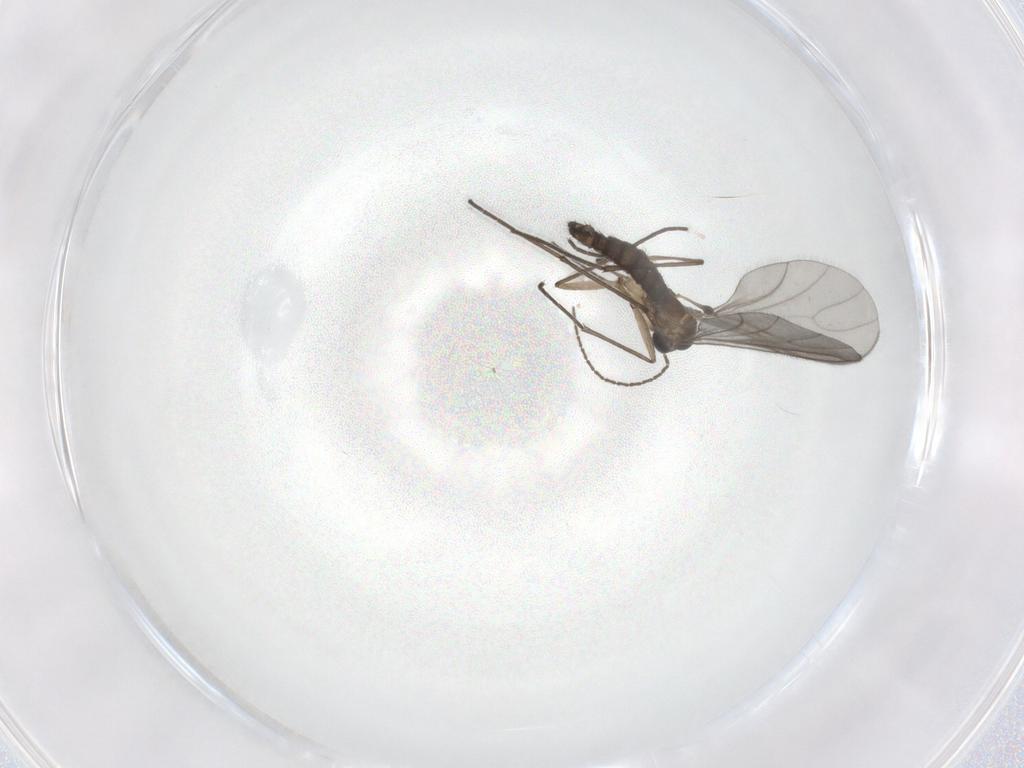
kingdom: Animalia
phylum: Arthropoda
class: Insecta
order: Diptera
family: Sciaridae
